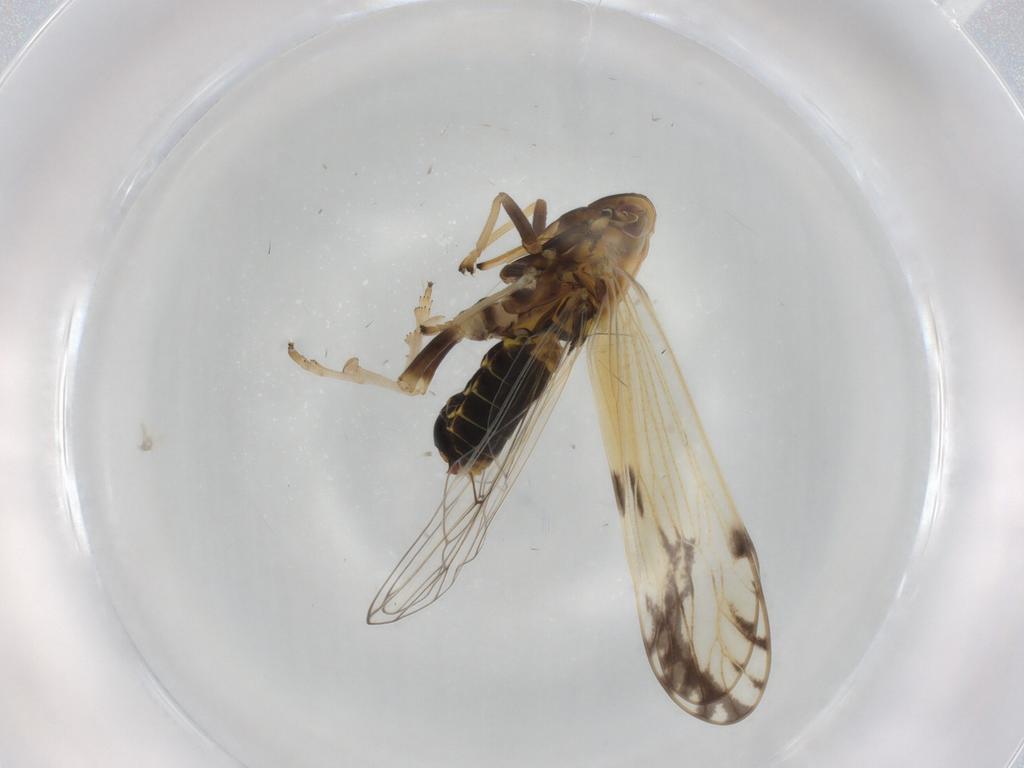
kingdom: Animalia
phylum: Arthropoda
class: Insecta
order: Hemiptera
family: Delphacidae
